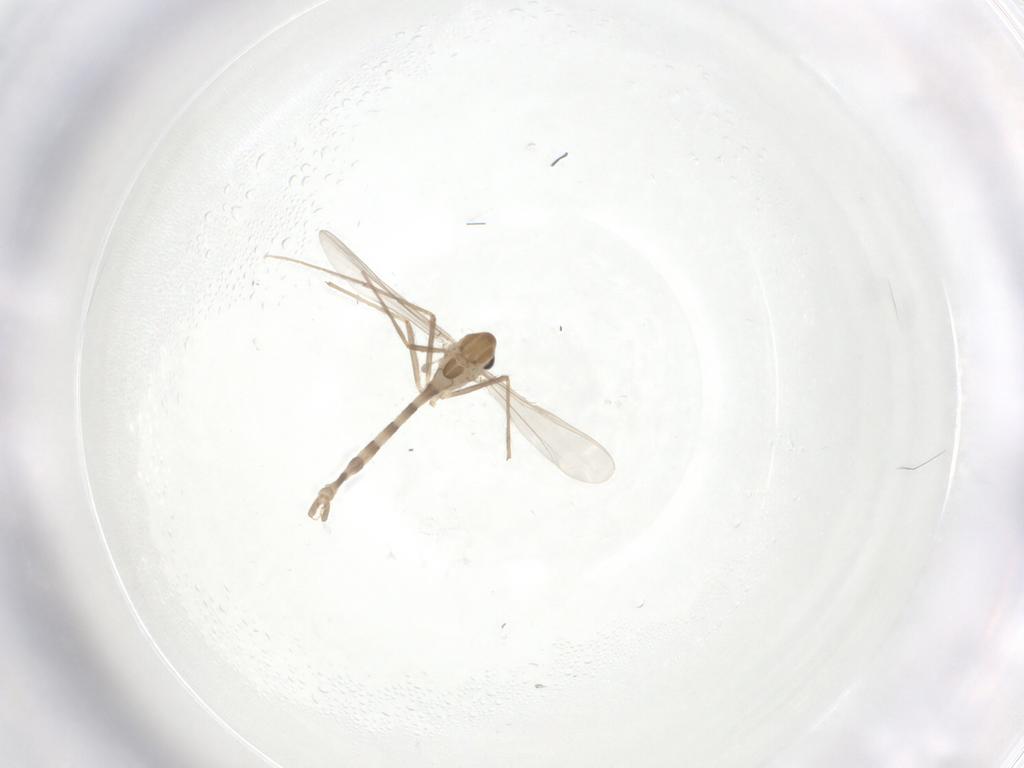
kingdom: Animalia
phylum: Arthropoda
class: Insecta
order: Diptera
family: Chironomidae
